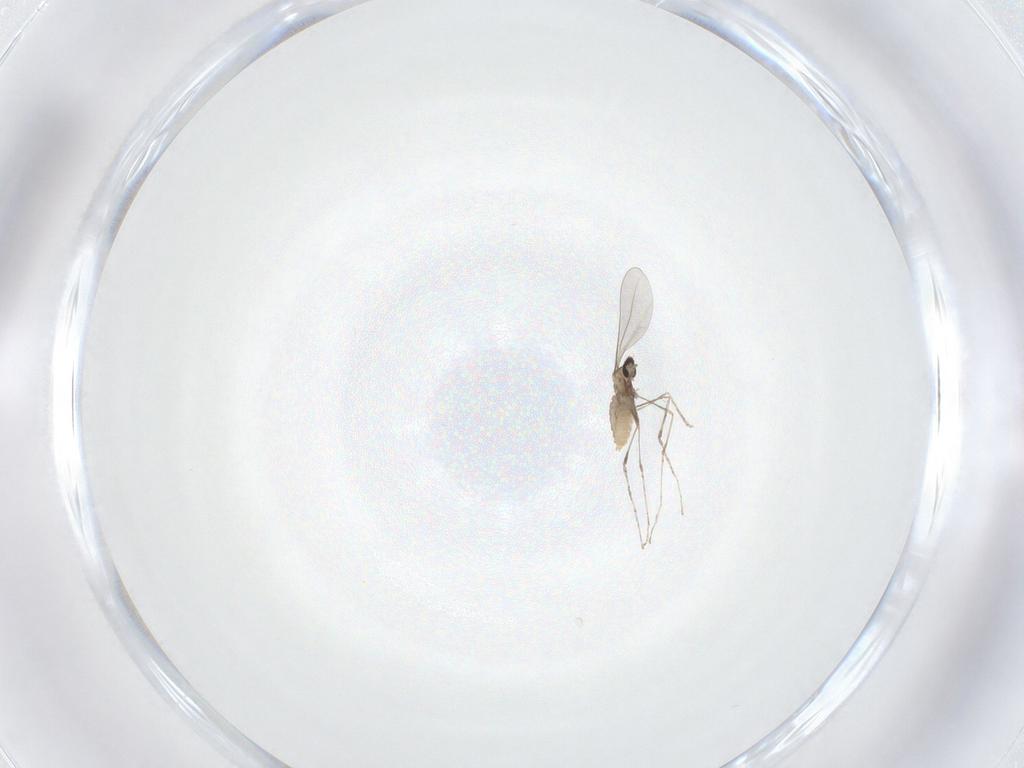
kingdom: Animalia
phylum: Arthropoda
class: Insecta
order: Diptera
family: Cecidomyiidae
